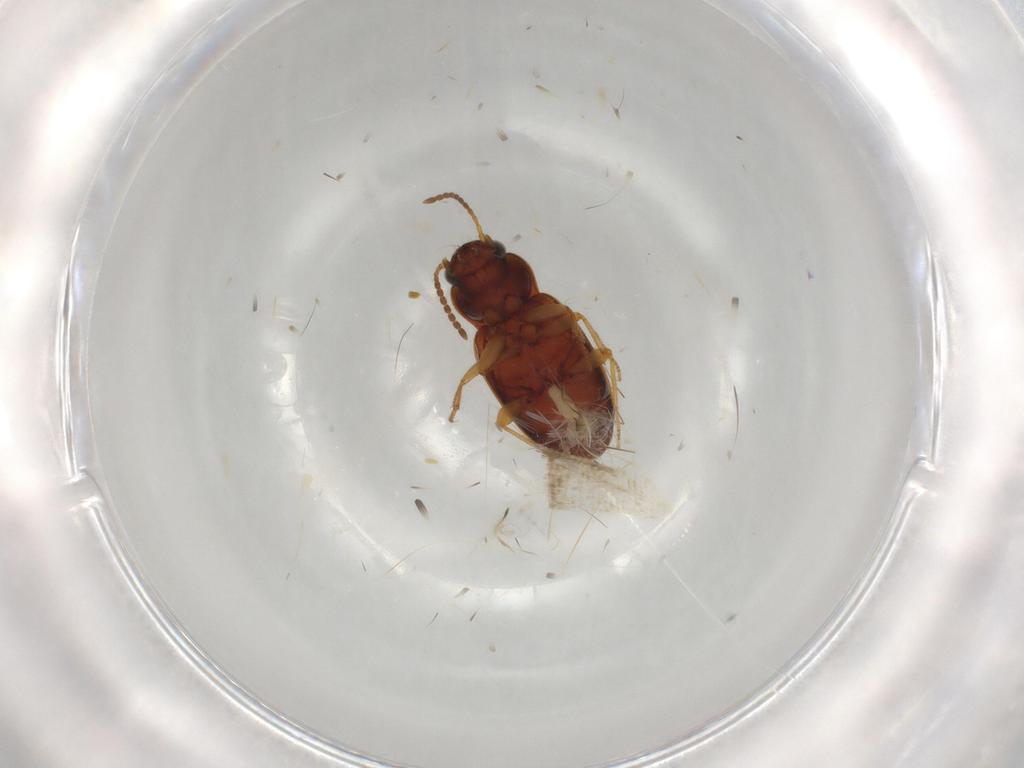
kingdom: Animalia
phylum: Arthropoda
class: Insecta
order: Coleoptera
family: Carabidae
